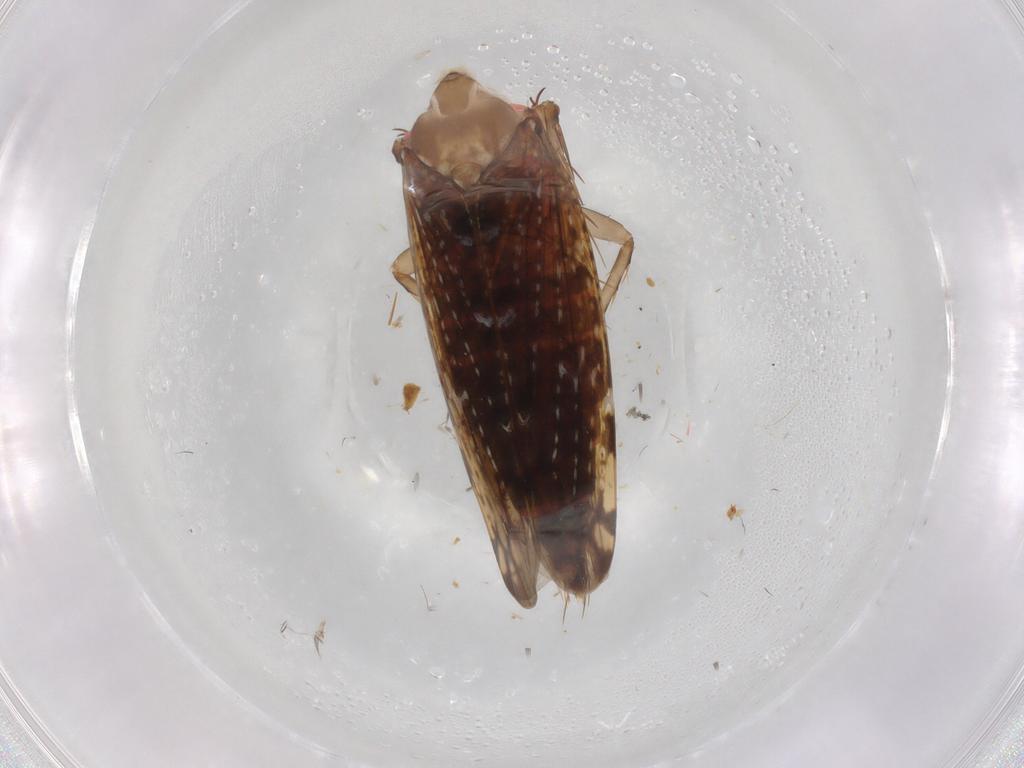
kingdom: Animalia
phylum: Arthropoda
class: Insecta
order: Hemiptera
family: Cicadellidae
